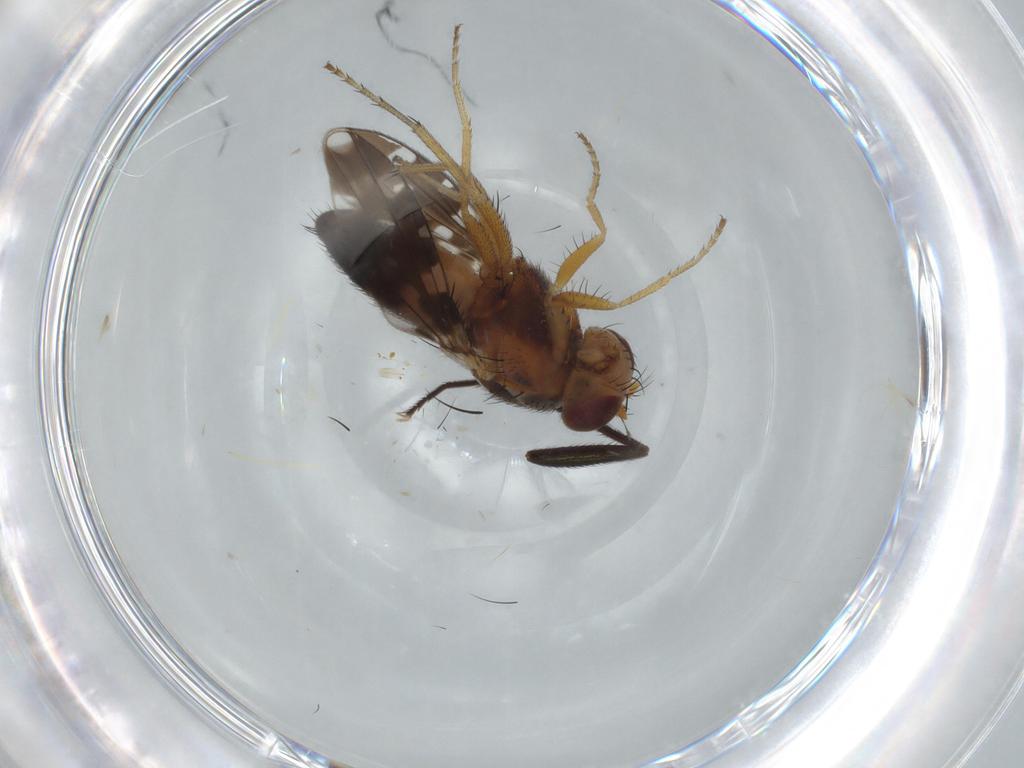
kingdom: Animalia
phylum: Arthropoda
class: Insecta
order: Diptera
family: Dolichopodidae
